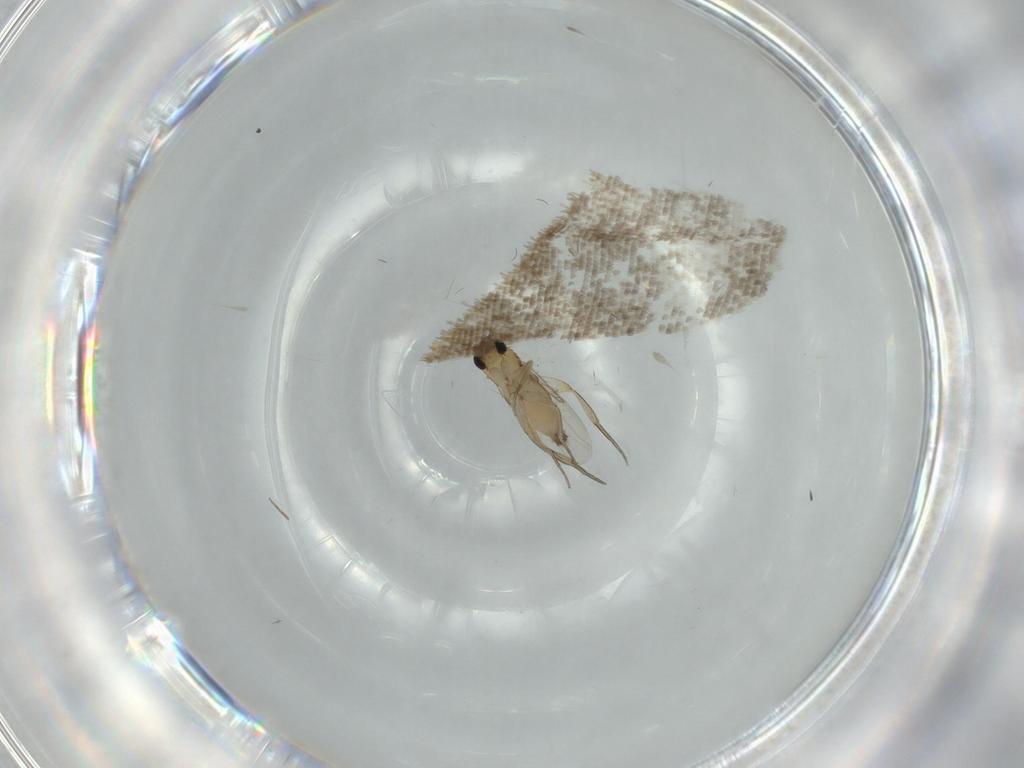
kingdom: Animalia
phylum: Arthropoda
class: Insecta
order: Diptera
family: Phoridae
